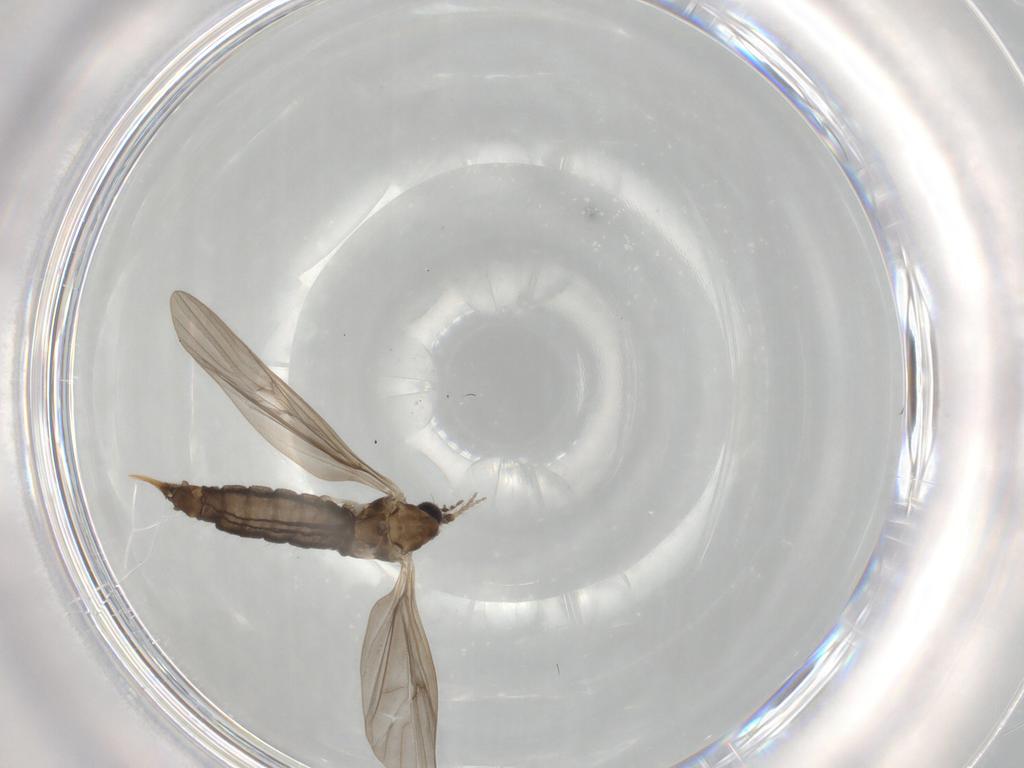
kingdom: Animalia
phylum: Arthropoda
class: Insecta
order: Diptera
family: Limoniidae
